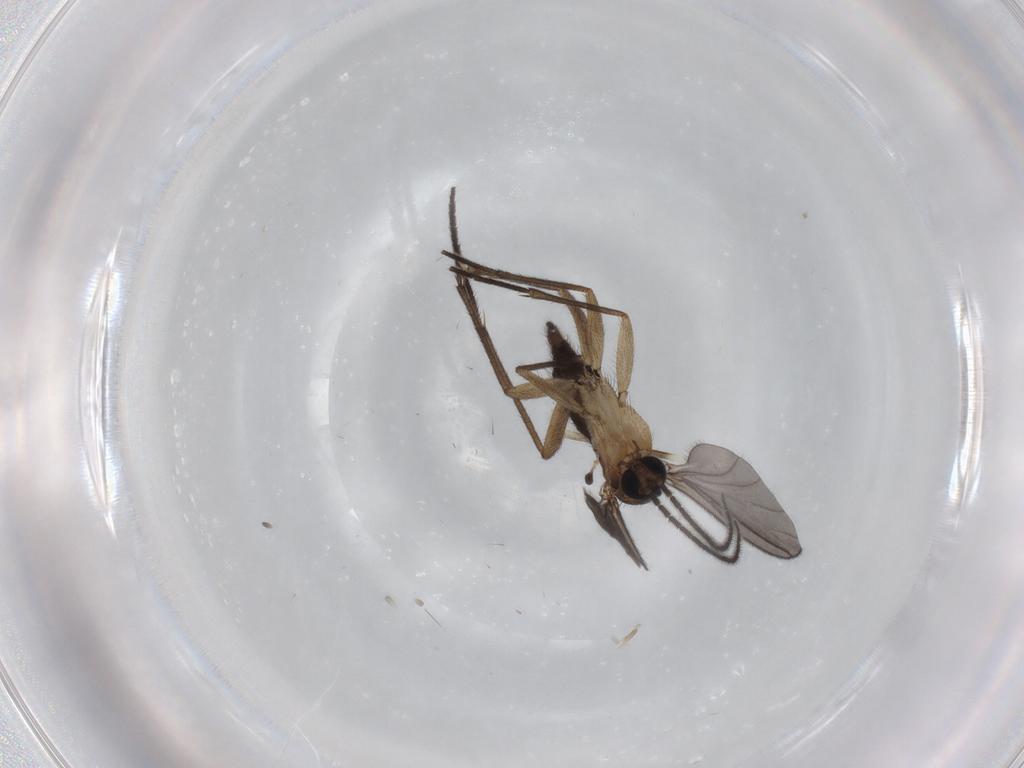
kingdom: Animalia
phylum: Arthropoda
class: Insecta
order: Diptera
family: Limoniidae
